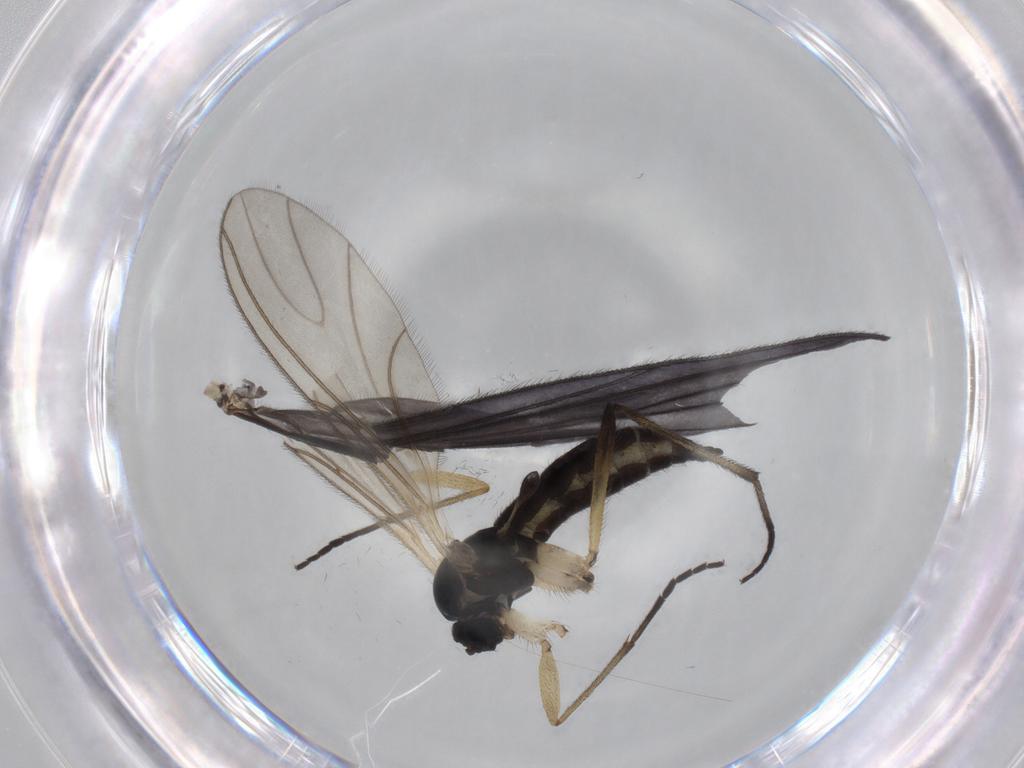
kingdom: Animalia
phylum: Arthropoda
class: Insecta
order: Diptera
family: Sciaridae
